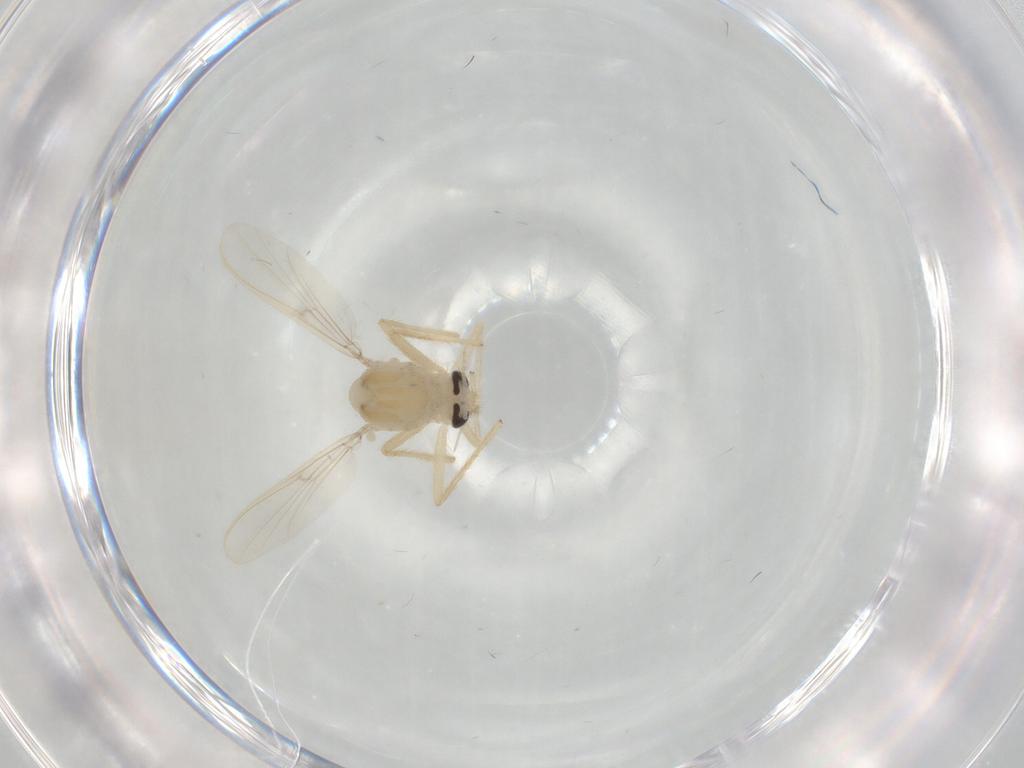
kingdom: Animalia
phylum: Arthropoda
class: Insecta
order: Diptera
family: Chironomidae
